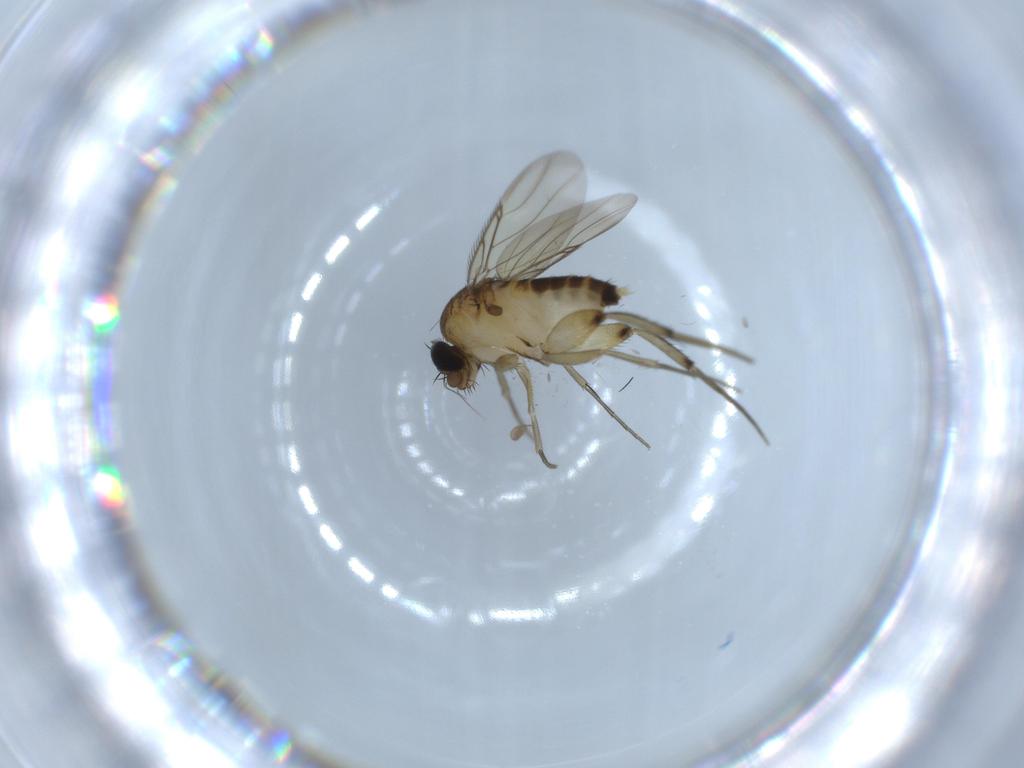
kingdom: Animalia
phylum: Arthropoda
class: Insecta
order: Diptera
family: Phoridae
